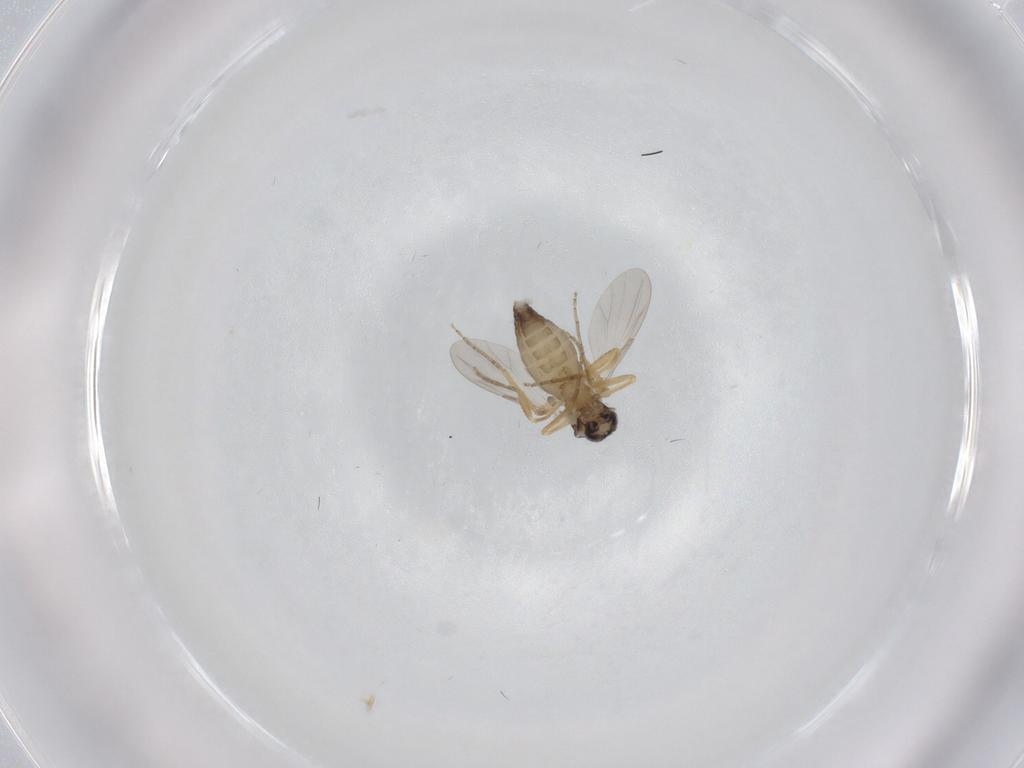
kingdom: Animalia
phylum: Arthropoda
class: Insecta
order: Diptera
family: Ceratopogonidae
